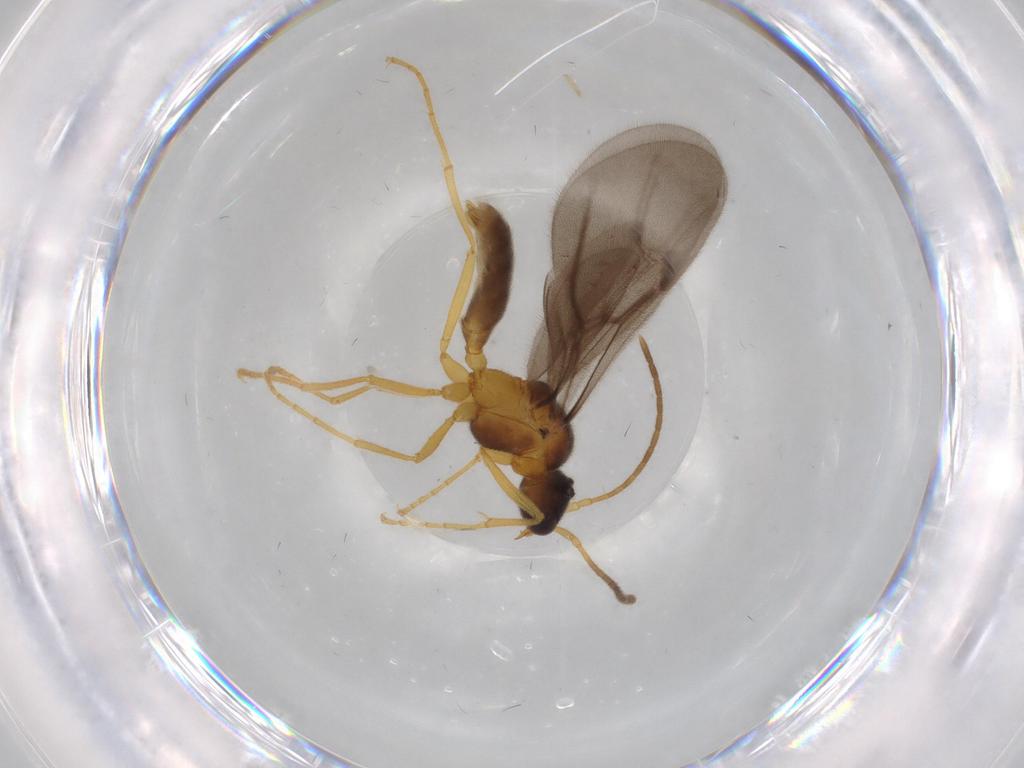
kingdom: Animalia
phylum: Arthropoda
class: Insecta
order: Hymenoptera
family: Formicidae
